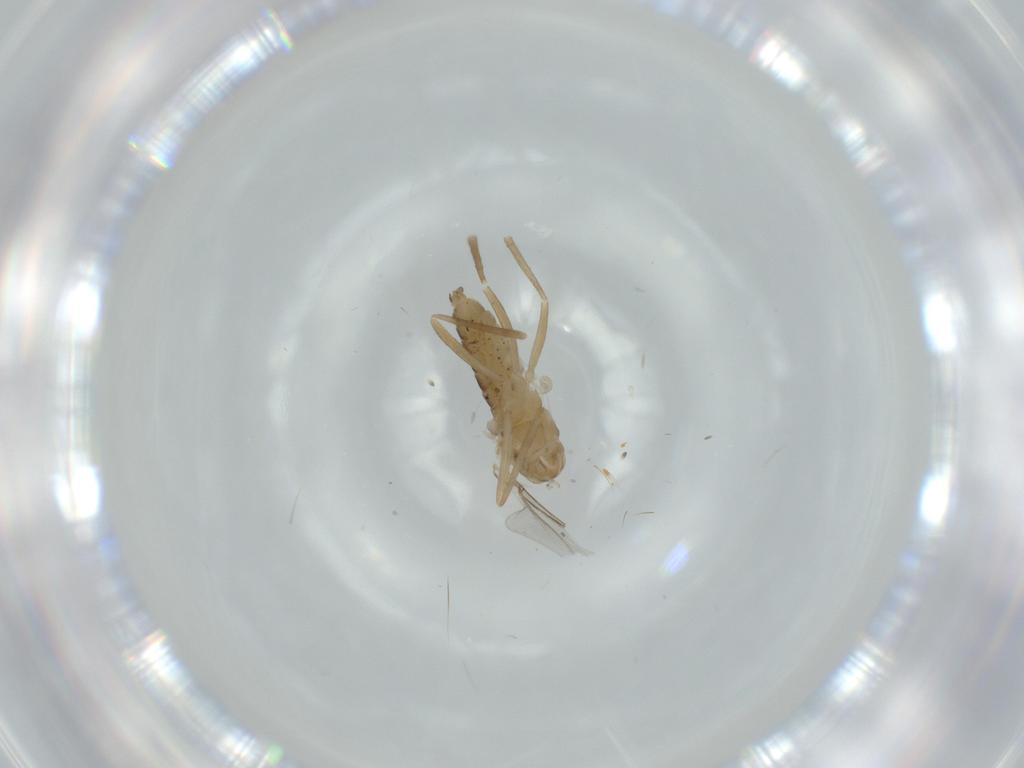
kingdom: Animalia
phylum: Arthropoda
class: Insecta
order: Diptera
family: Cecidomyiidae
